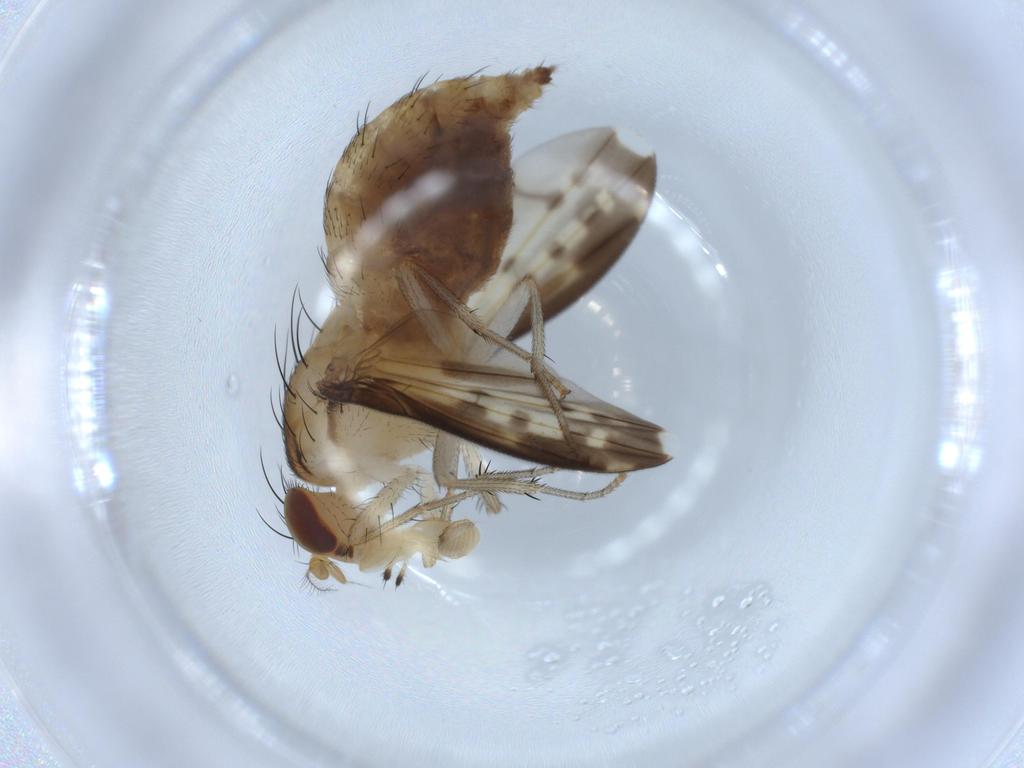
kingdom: Animalia
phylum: Arthropoda
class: Insecta
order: Diptera
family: Lauxaniidae
